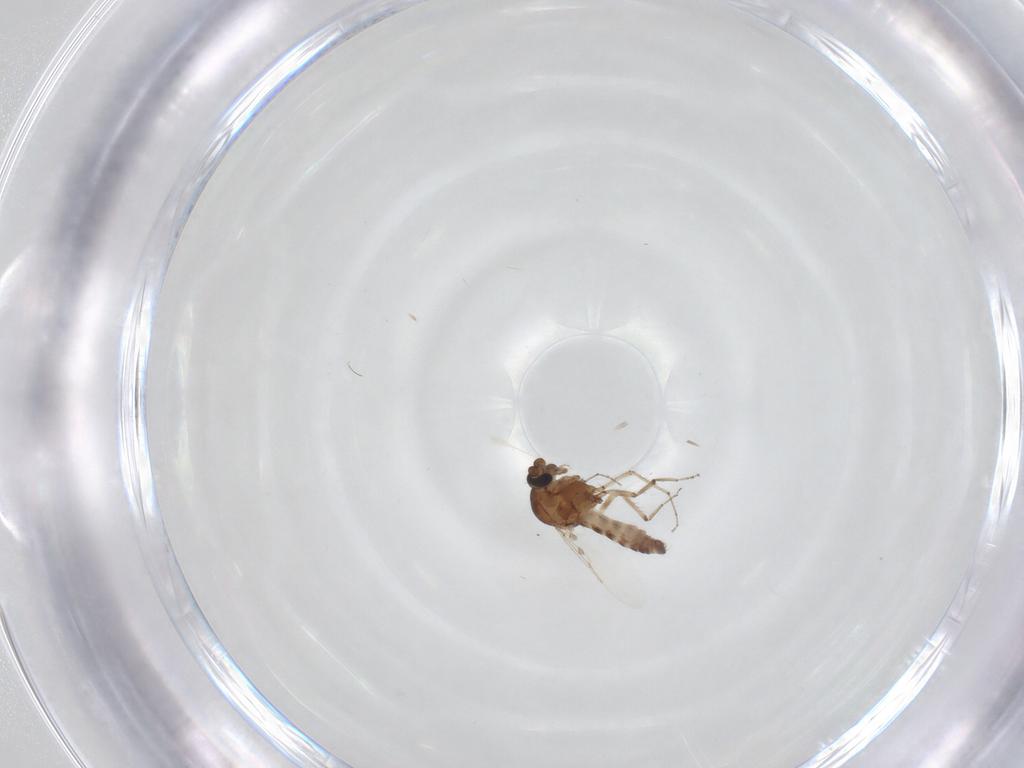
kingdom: Animalia
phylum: Arthropoda
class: Insecta
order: Diptera
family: Ceratopogonidae
